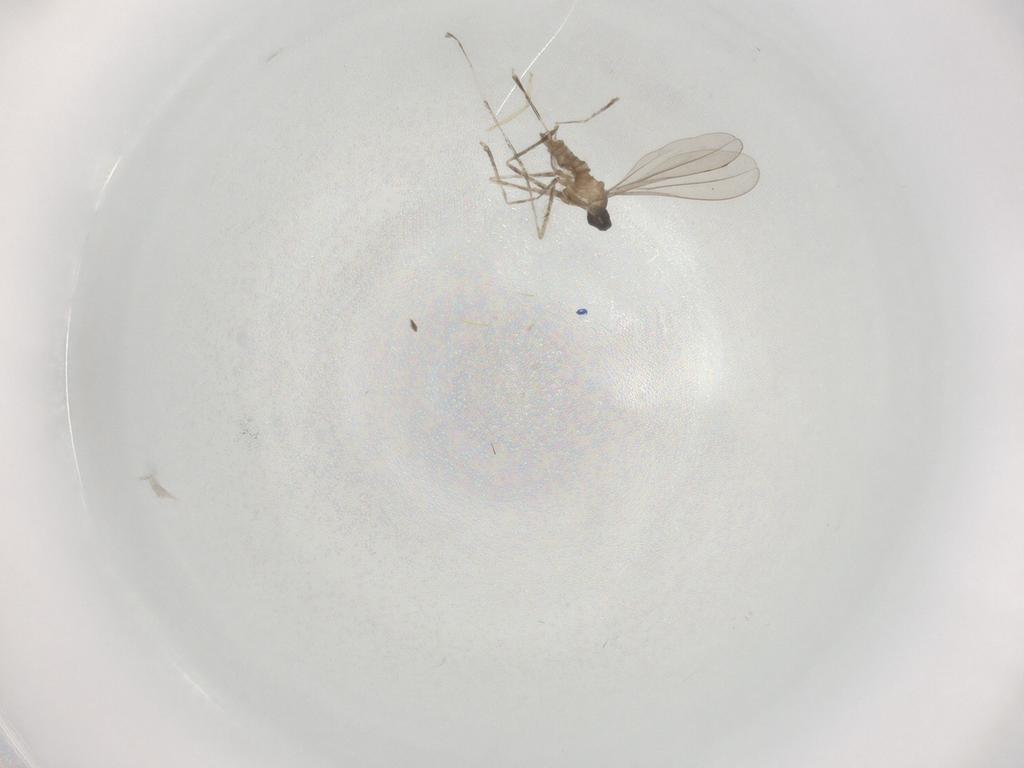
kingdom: Animalia
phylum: Arthropoda
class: Insecta
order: Diptera
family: Cecidomyiidae
